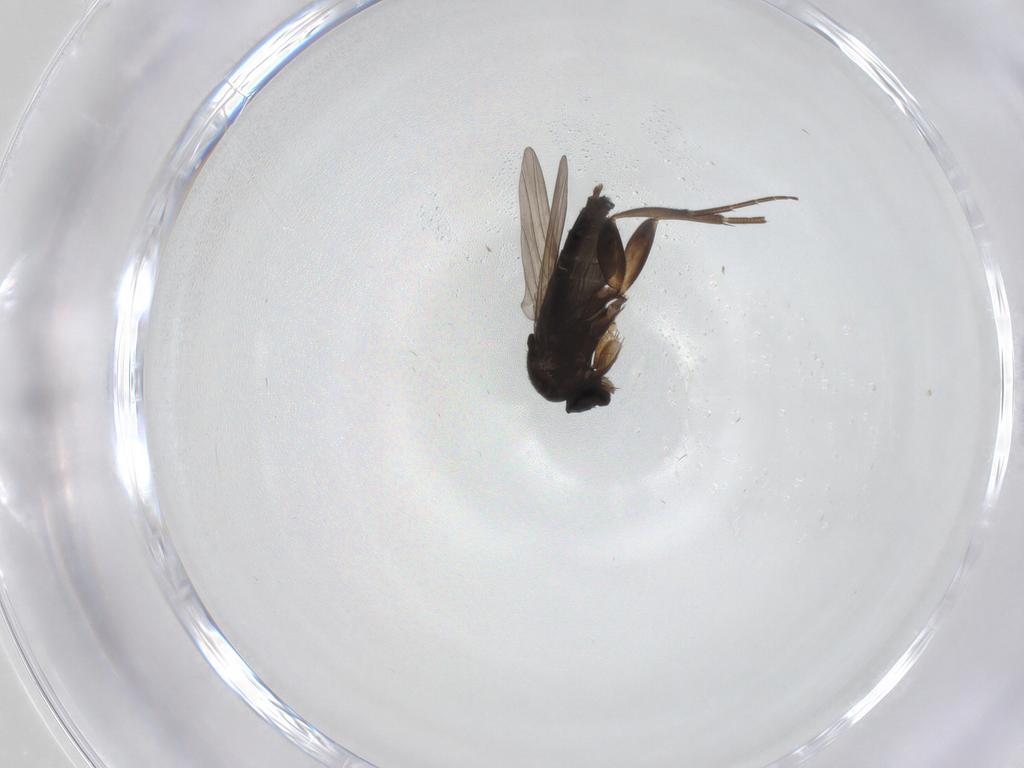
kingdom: Animalia
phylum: Arthropoda
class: Insecta
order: Diptera
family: Phoridae
